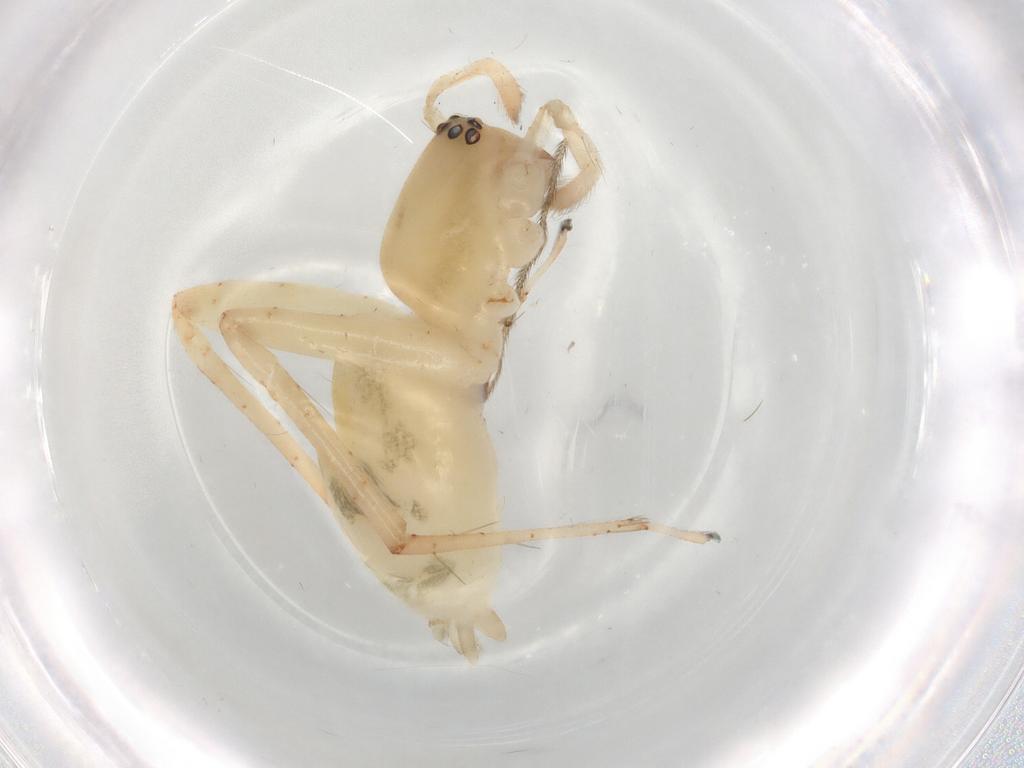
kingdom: Animalia
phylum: Arthropoda
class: Arachnida
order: Araneae
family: Anyphaenidae
